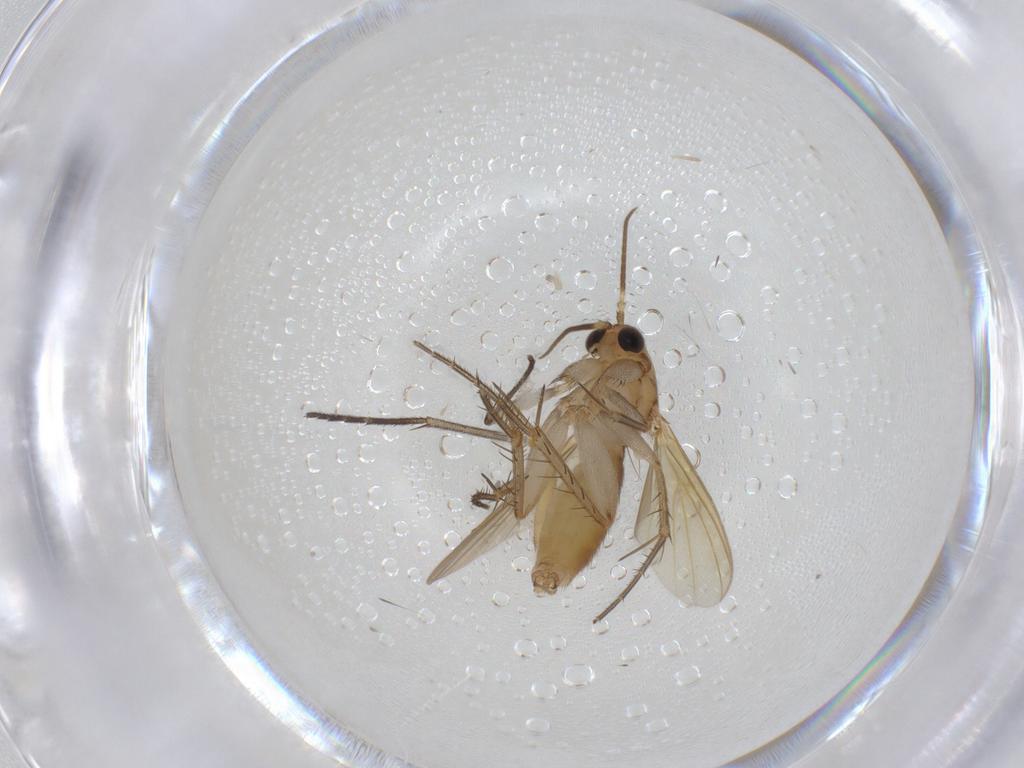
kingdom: Animalia
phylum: Arthropoda
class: Insecta
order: Diptera
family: Mycetophilidae
